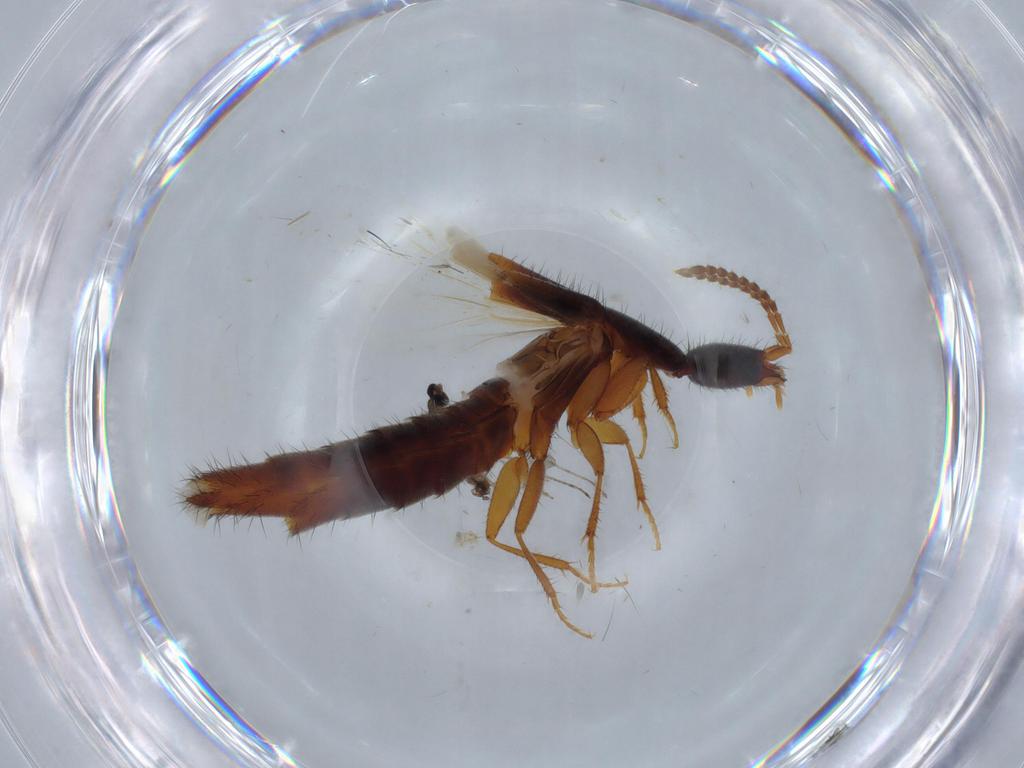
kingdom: Animalia
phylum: Arthropoda
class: Insecta
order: Coleoptera
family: Staphylinidae
